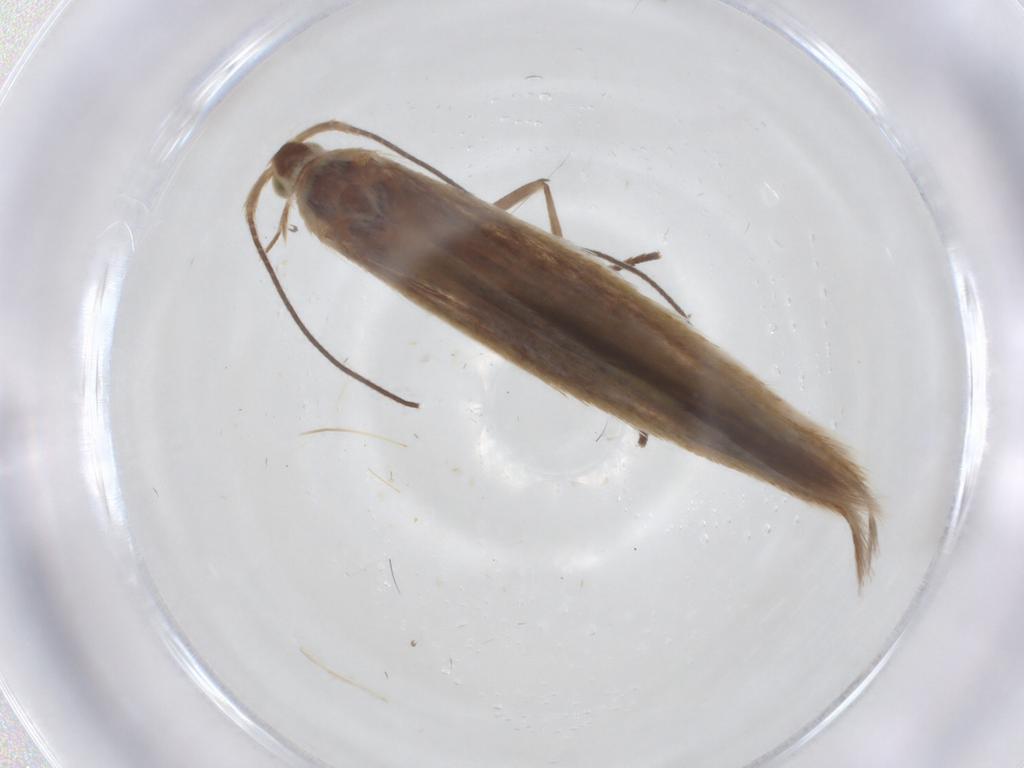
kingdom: Animalia
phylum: Arthropoda
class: Insecta
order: Lepidoptera
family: Coleophoridae
